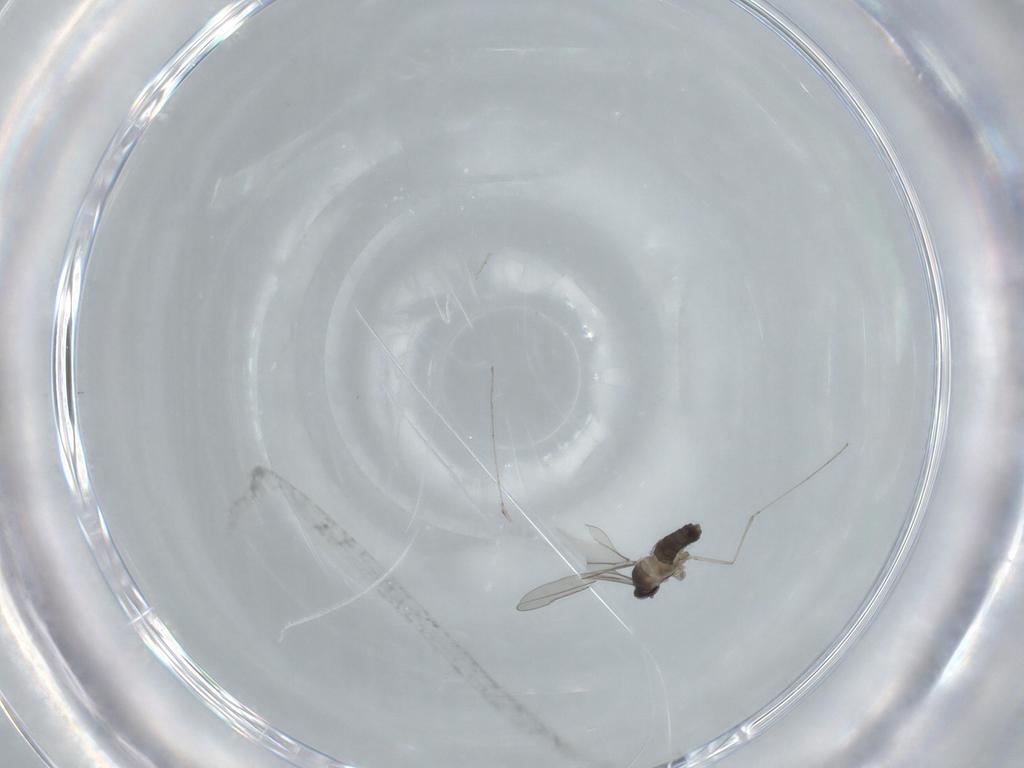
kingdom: Animalia
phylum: Arthropoda
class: Insecta
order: Diptera
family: Cecidomyiidae
